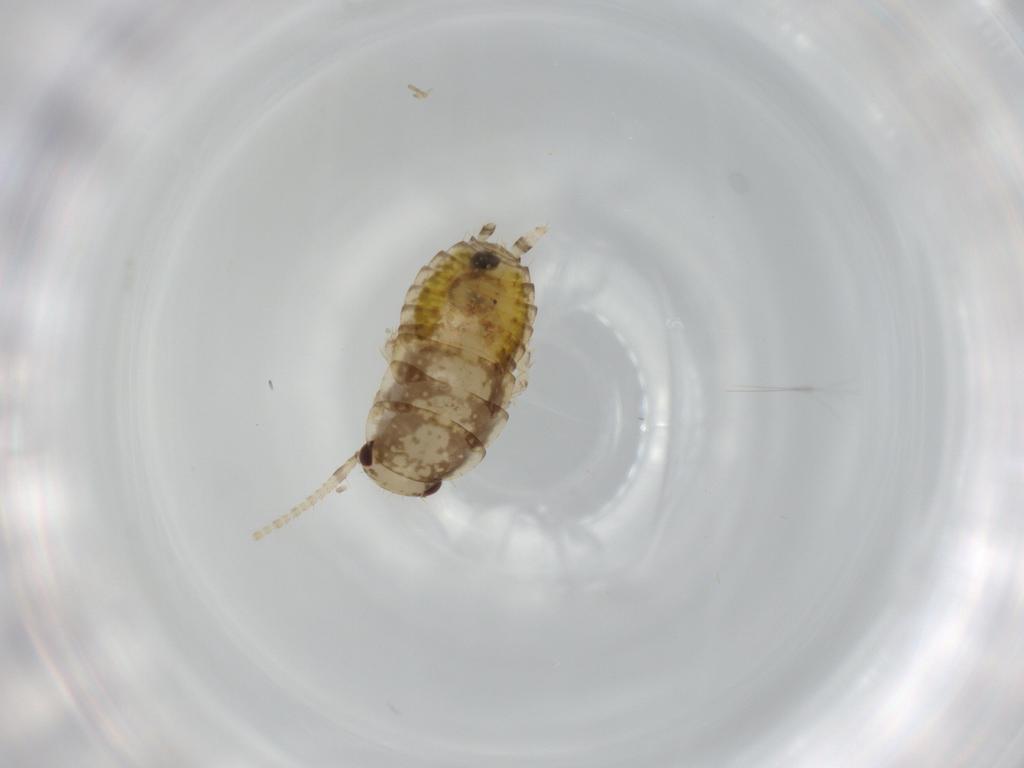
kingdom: Animalia
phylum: Arthropoda
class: Insecta
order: Blattodea
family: Ectobiidae
